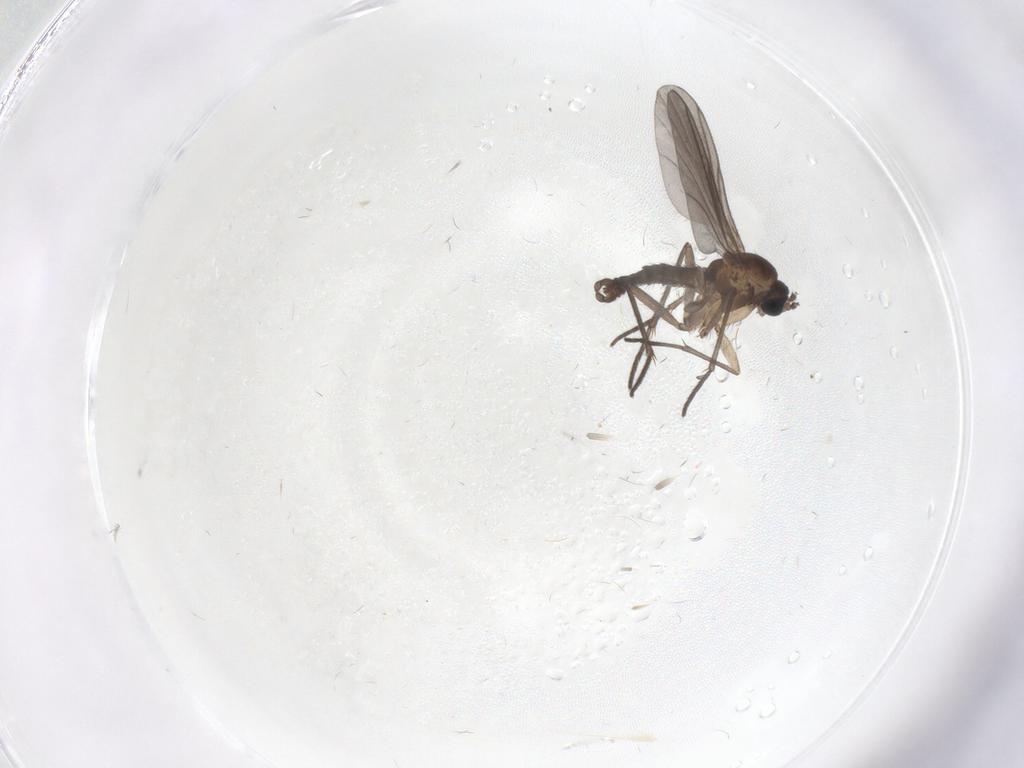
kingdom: Animalia
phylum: Arthropoda
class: Insecta
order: Diptera
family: Sciaridae
